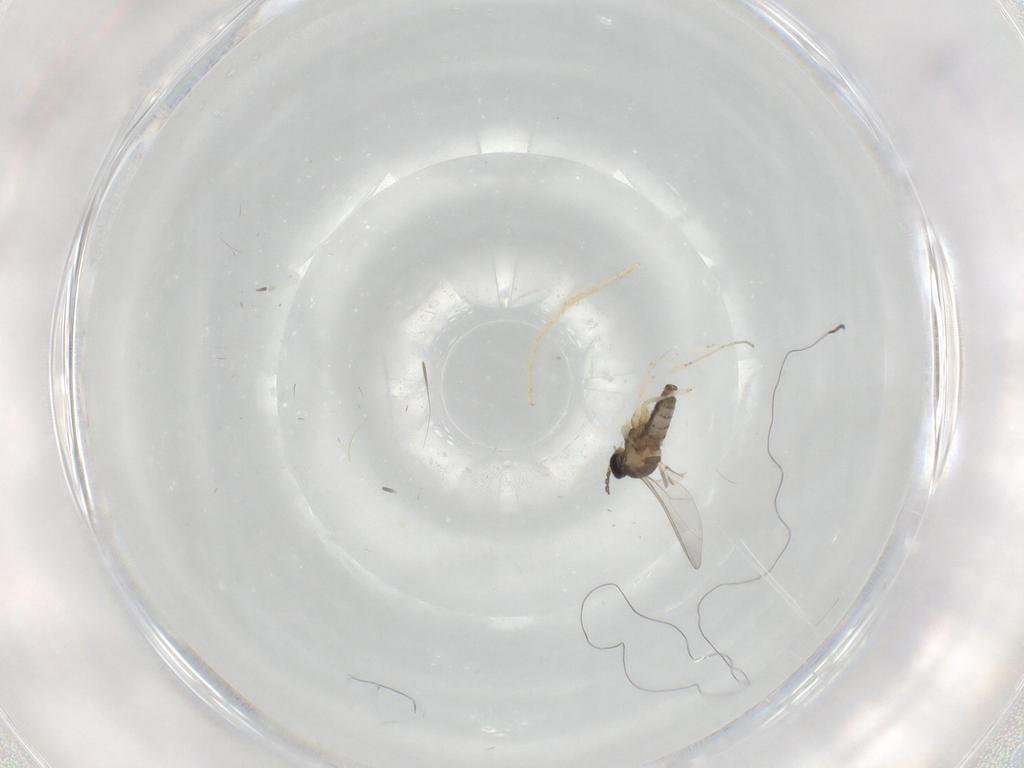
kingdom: Animalia
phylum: Arthropoda
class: Insecta
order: Diptera
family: Cecidomyiidae
